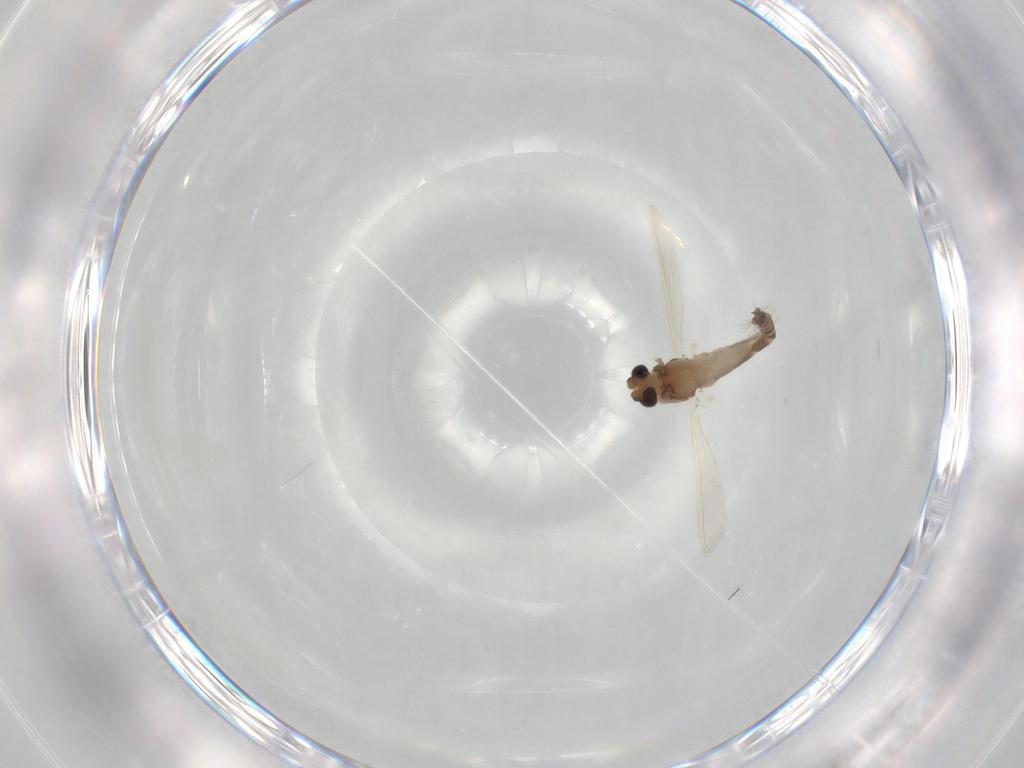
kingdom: Animalia
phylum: Arthropoda
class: Insecta
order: Diptera
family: Chironomidae
